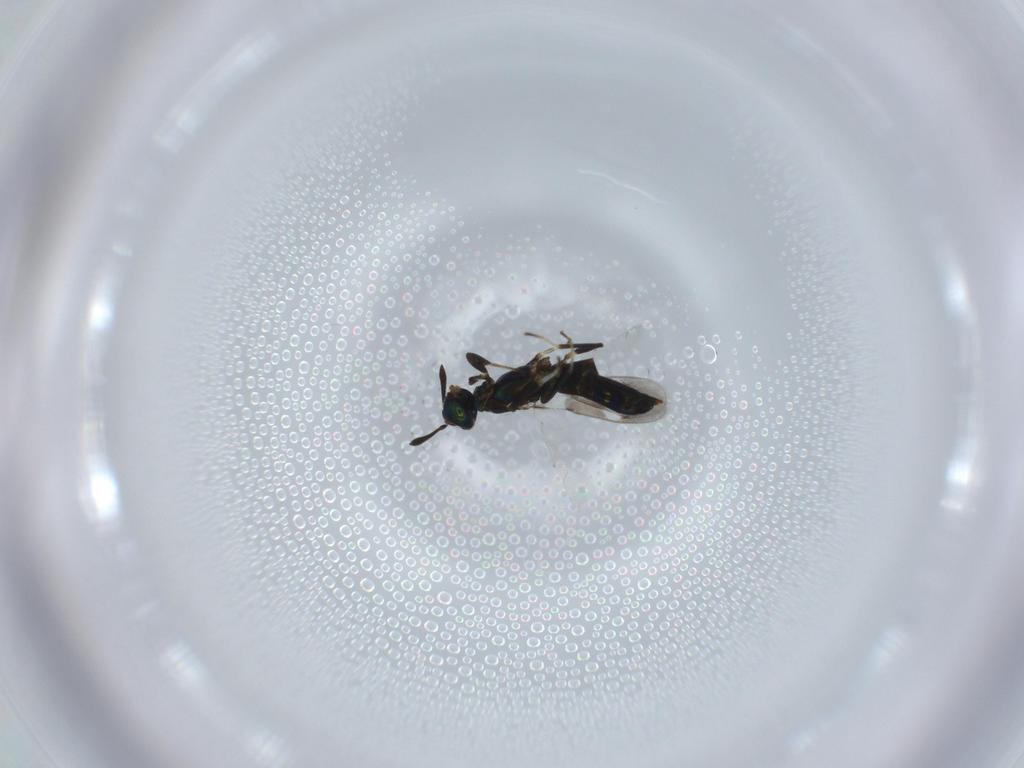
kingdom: Animalia
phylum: Arthropoda
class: Insecta
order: Hymenoptera
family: Eupelmidae
